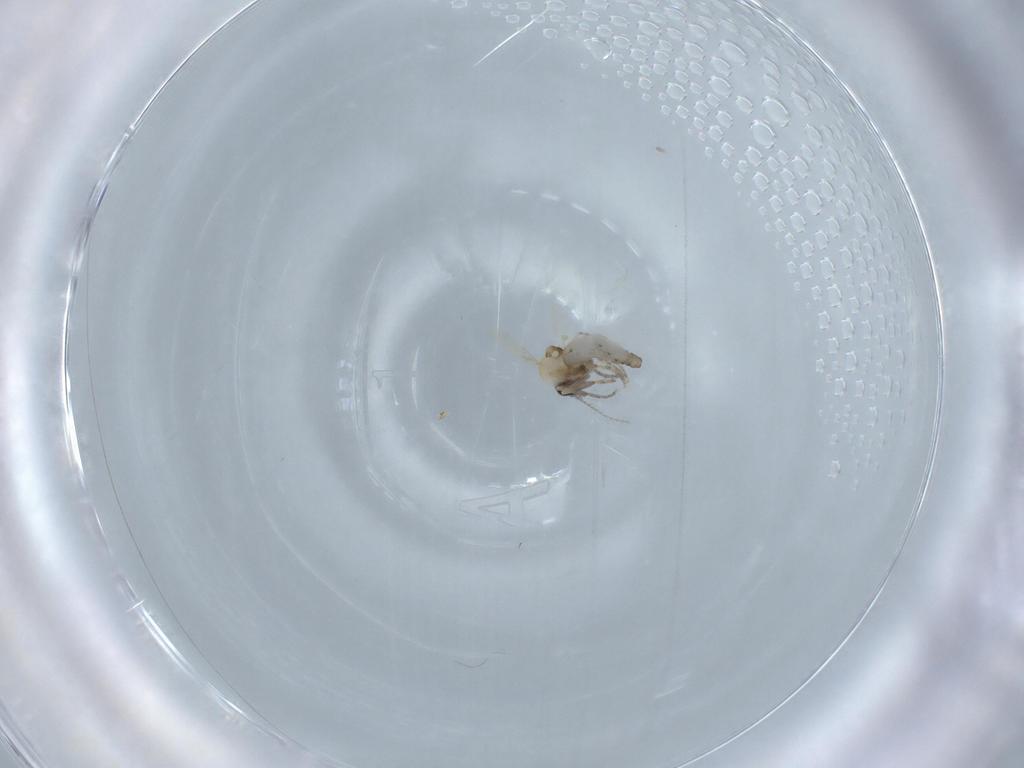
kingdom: Animalia
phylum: Arthropoda
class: Insecta
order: Diptera
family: Ceratopogonidae
